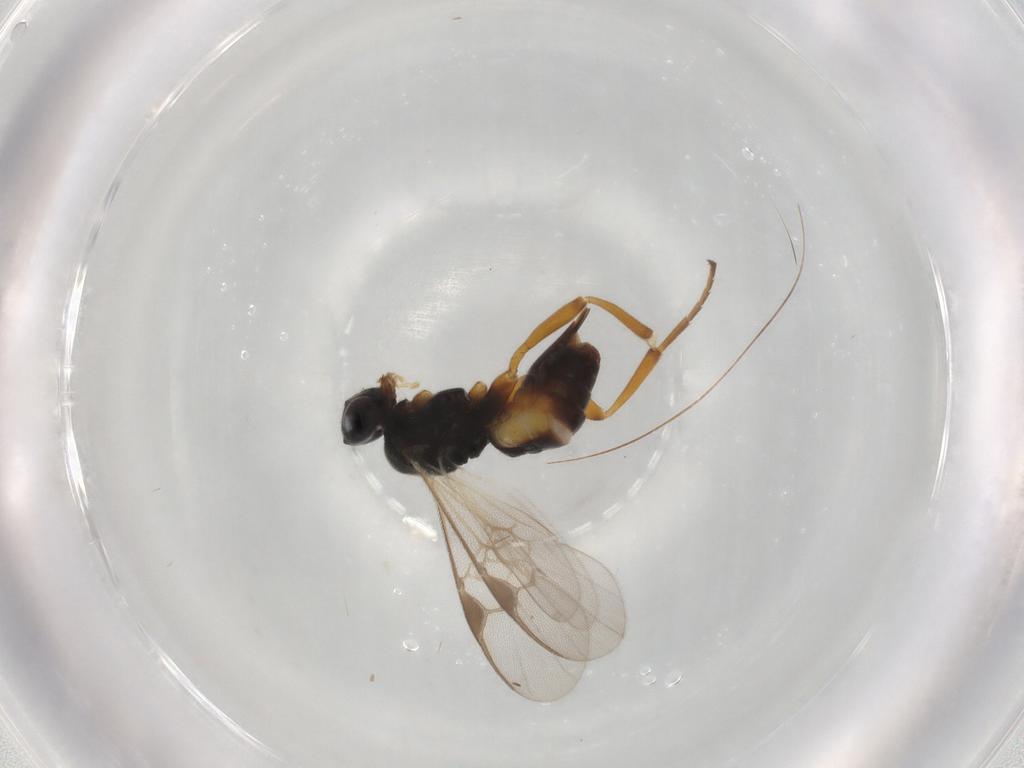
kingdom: Animalia
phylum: Arthropoda
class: Insecta
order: Hymenoptera
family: Braconidae
